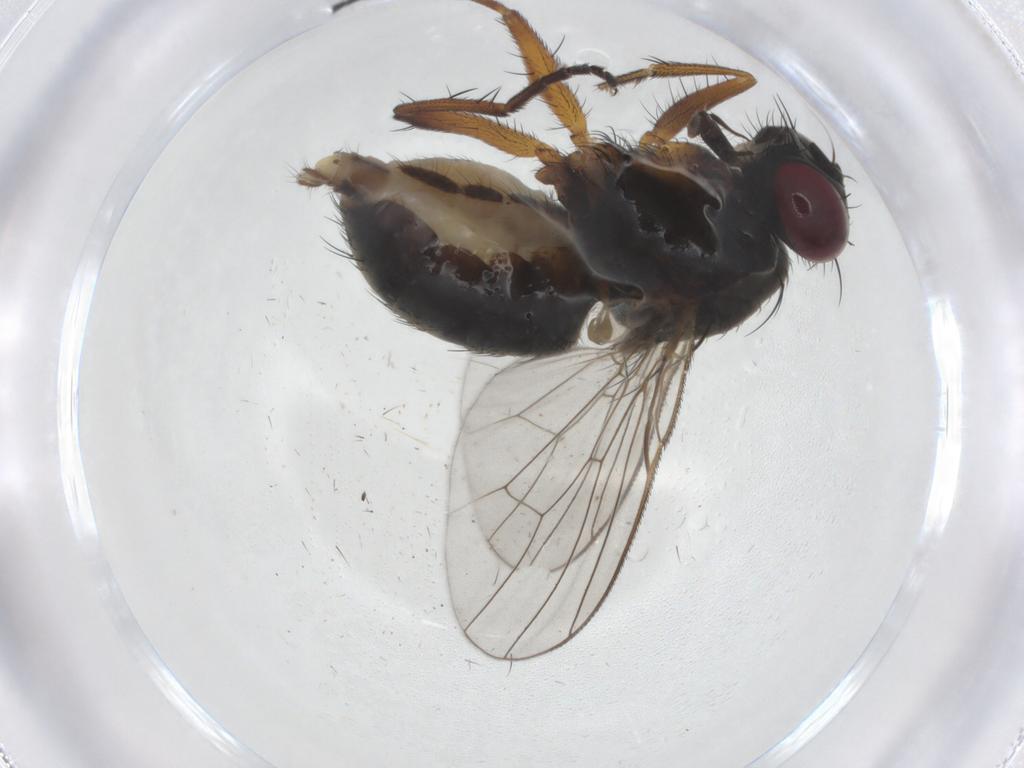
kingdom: Animalia
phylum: Arthropoda
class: Insecta
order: Diptera
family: Muscidae
